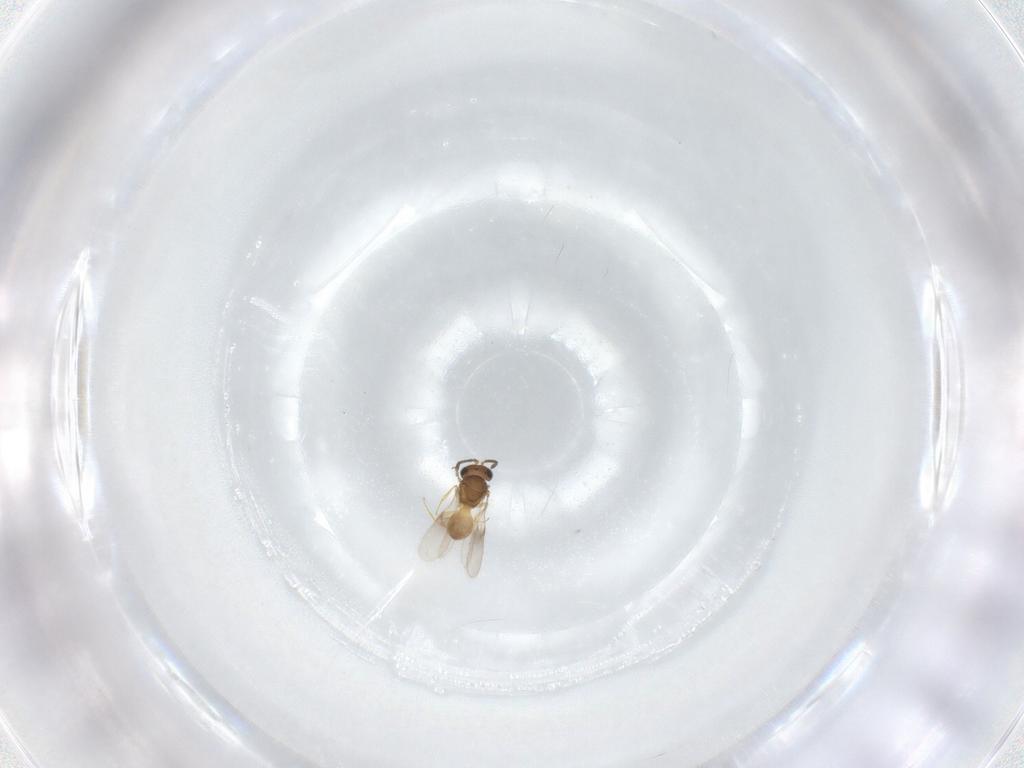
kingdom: Animalia
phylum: Arthropoda
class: Insecta
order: Hymenoptera
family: Scelionidae
